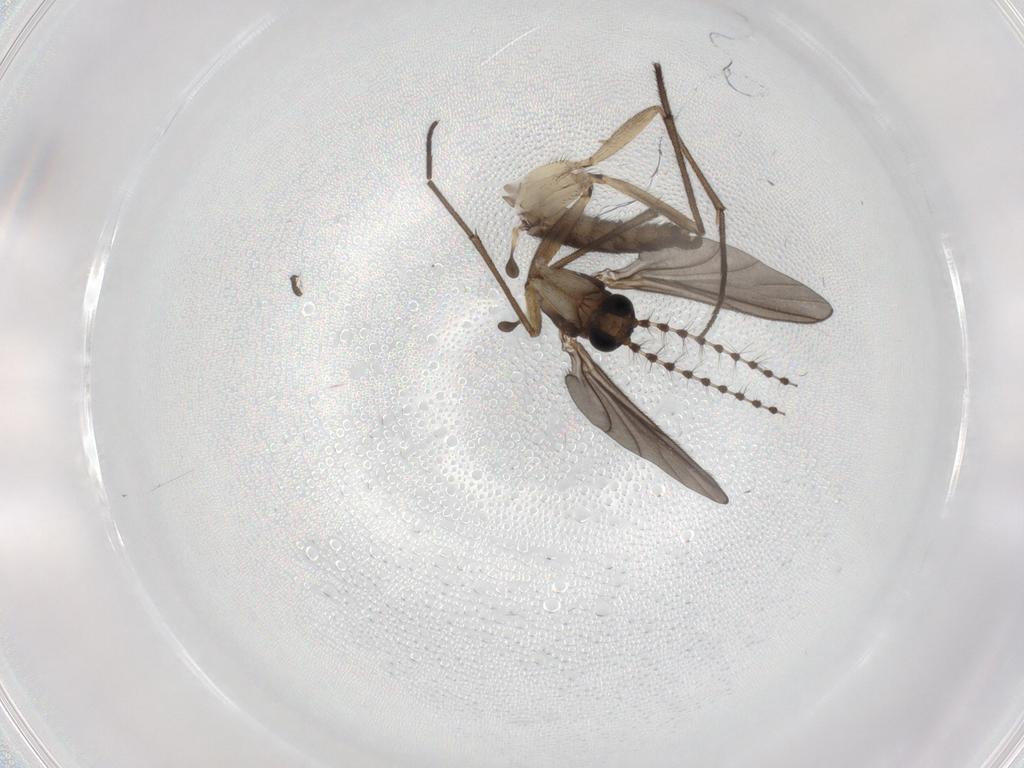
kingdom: Animalia
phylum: Arthropoda
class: Insecta
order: Diptera
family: Sciaridae
